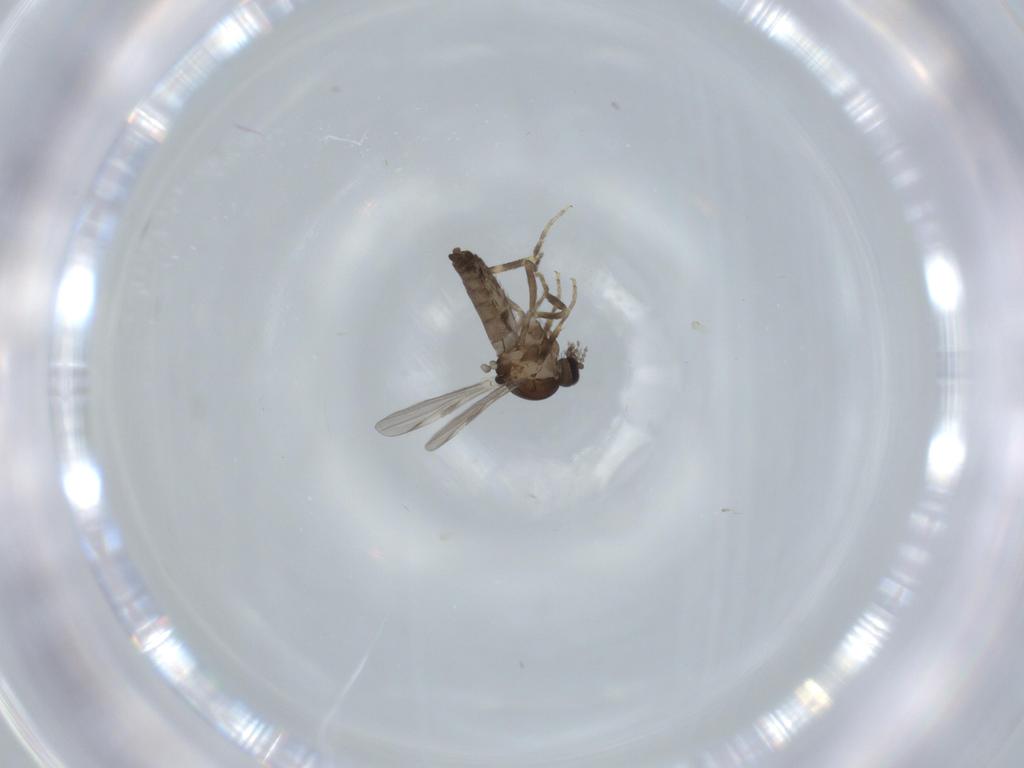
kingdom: Animalia
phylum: Arthropoda
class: Insecta
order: Diptera
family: Ceratopogonidae
